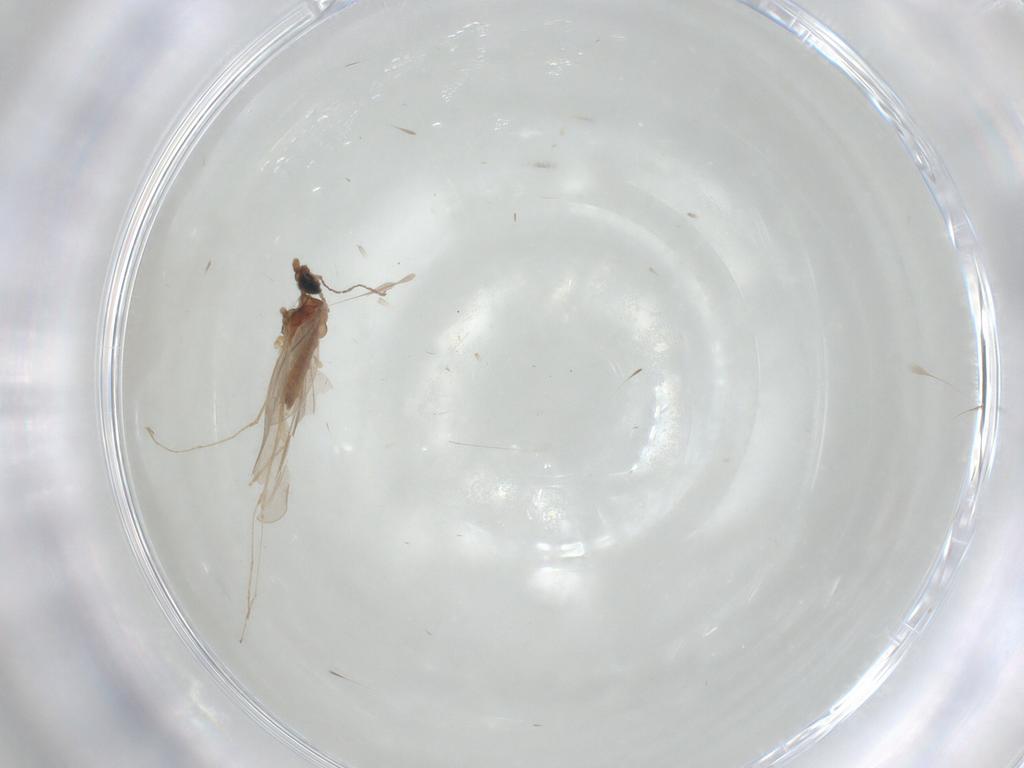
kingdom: Animalia
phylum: Arthropoda
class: Insecta
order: Diptera
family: Cecidomyiidae
